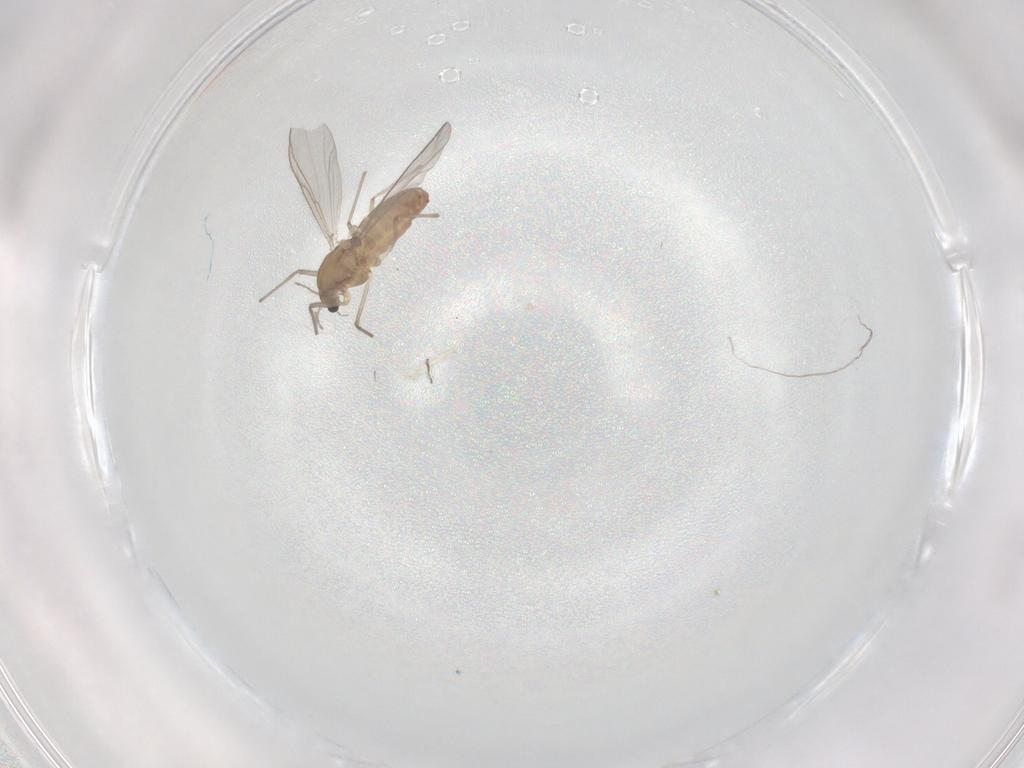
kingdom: Animalia
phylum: Arthropoda
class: Insecta
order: Diptera
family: Chironomidae
